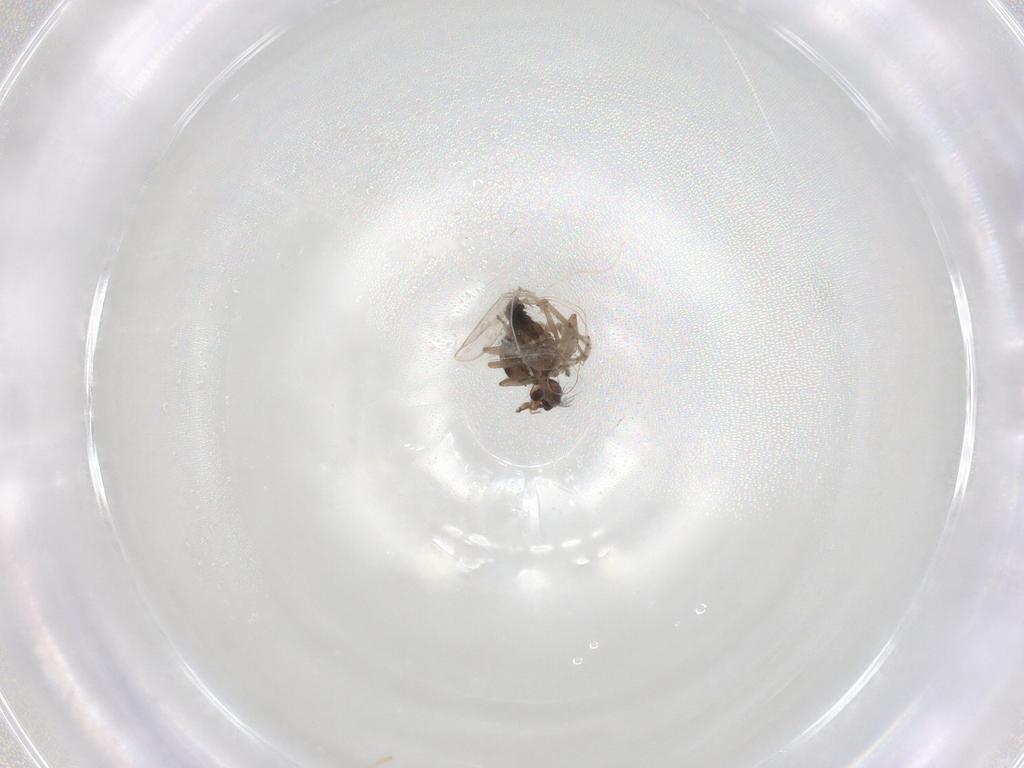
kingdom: Animalia
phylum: Arthropoda
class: Insecta
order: Diptera
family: Ceratopogonidae
